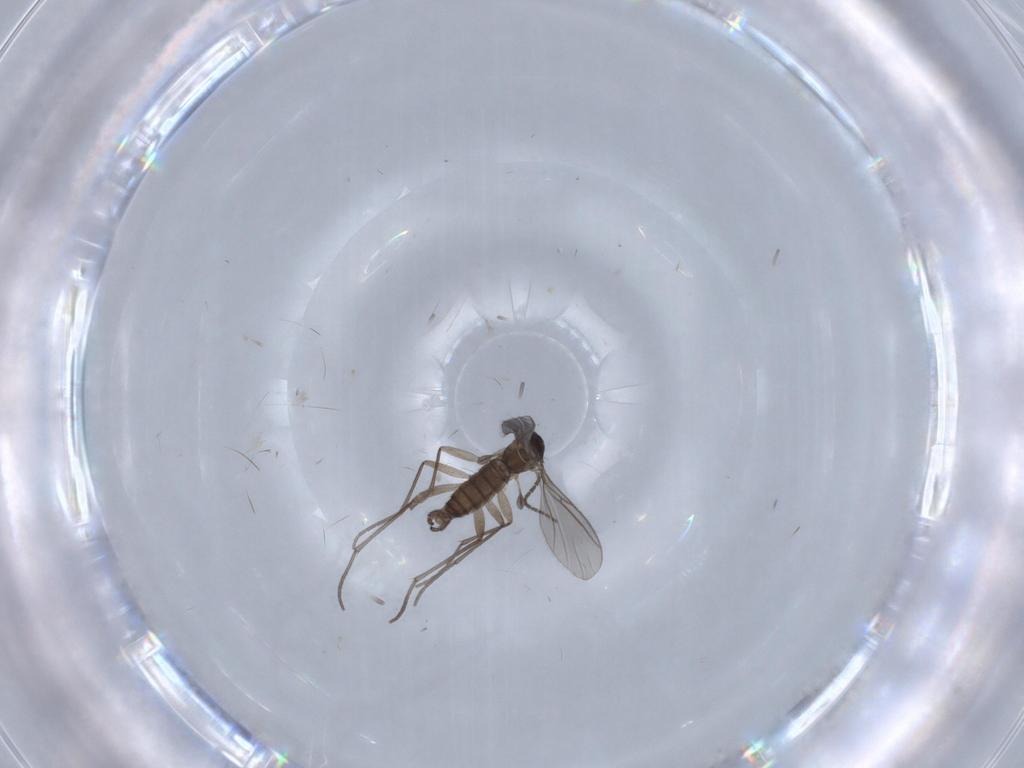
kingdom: Animalia
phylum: Arthropoda
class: Insecta
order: Diptera
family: Sciaridae
